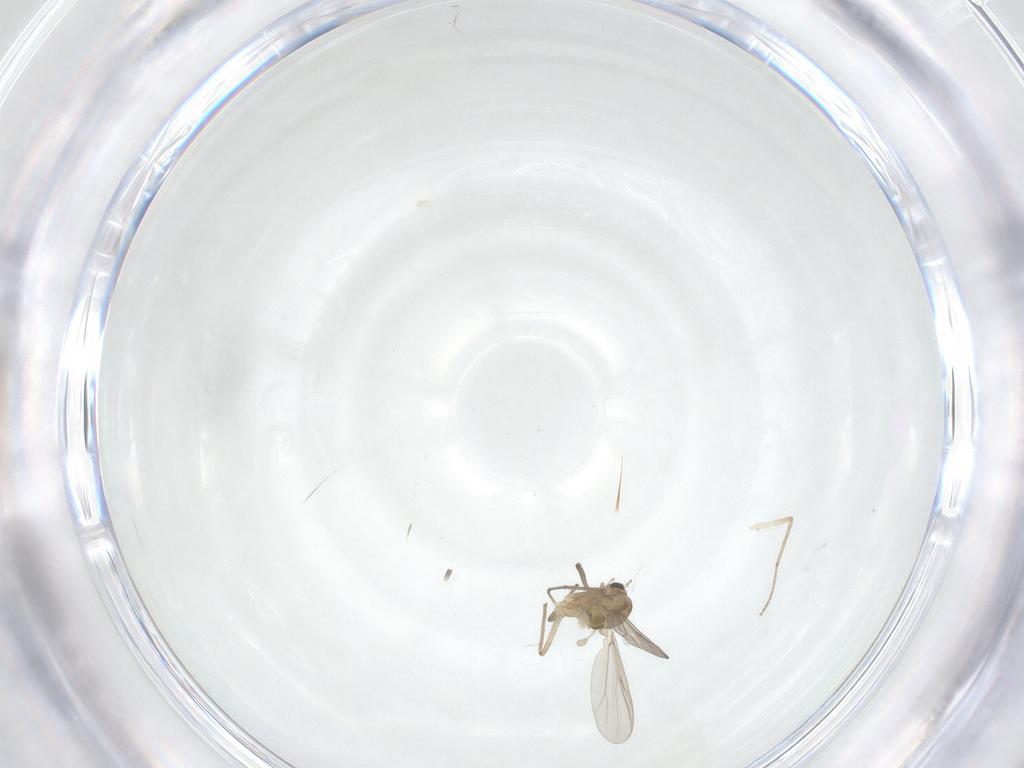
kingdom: Animalia
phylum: Arthropoda
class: Insecta
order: Diptera
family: Chironomidae
